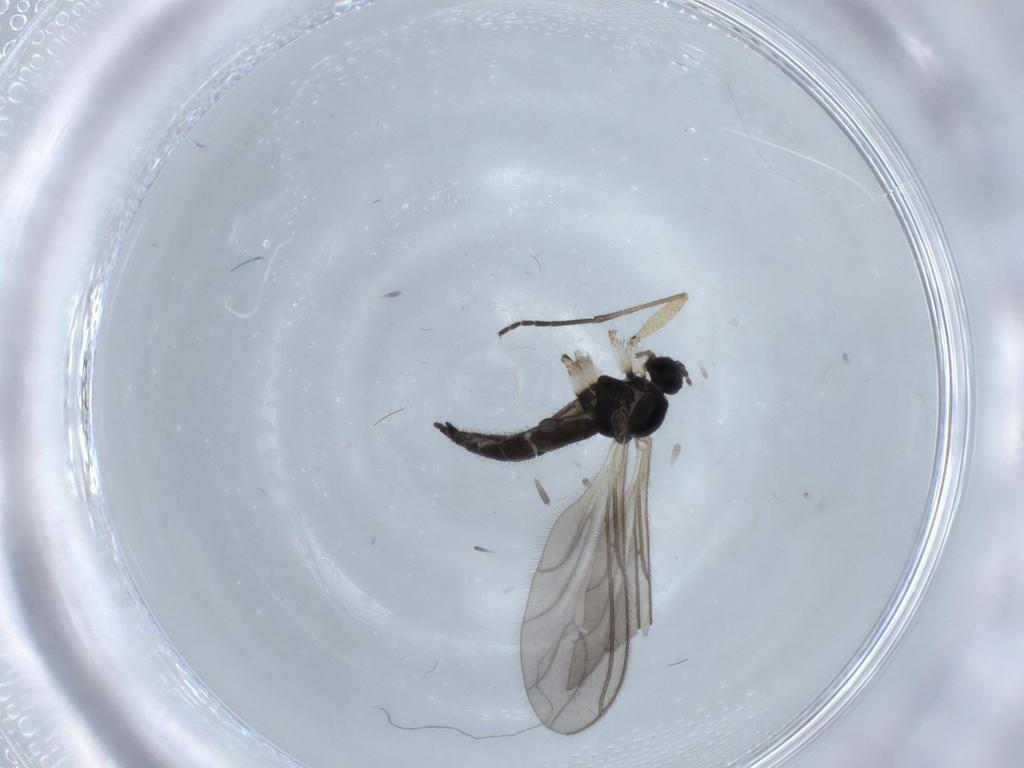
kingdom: Animalia
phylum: Arthropoda
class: Insecta
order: Diptera
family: Sciaridae
